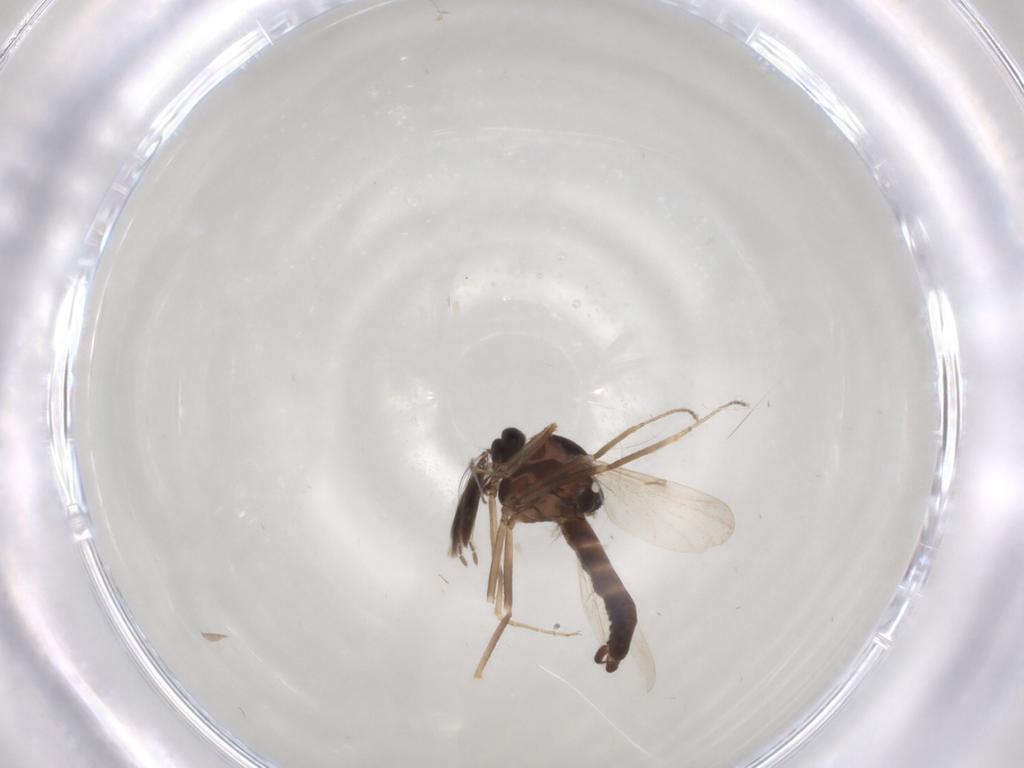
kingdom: Animalia
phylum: Arthropoda
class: Insecta
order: Diptera
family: Ceratopogonidae
